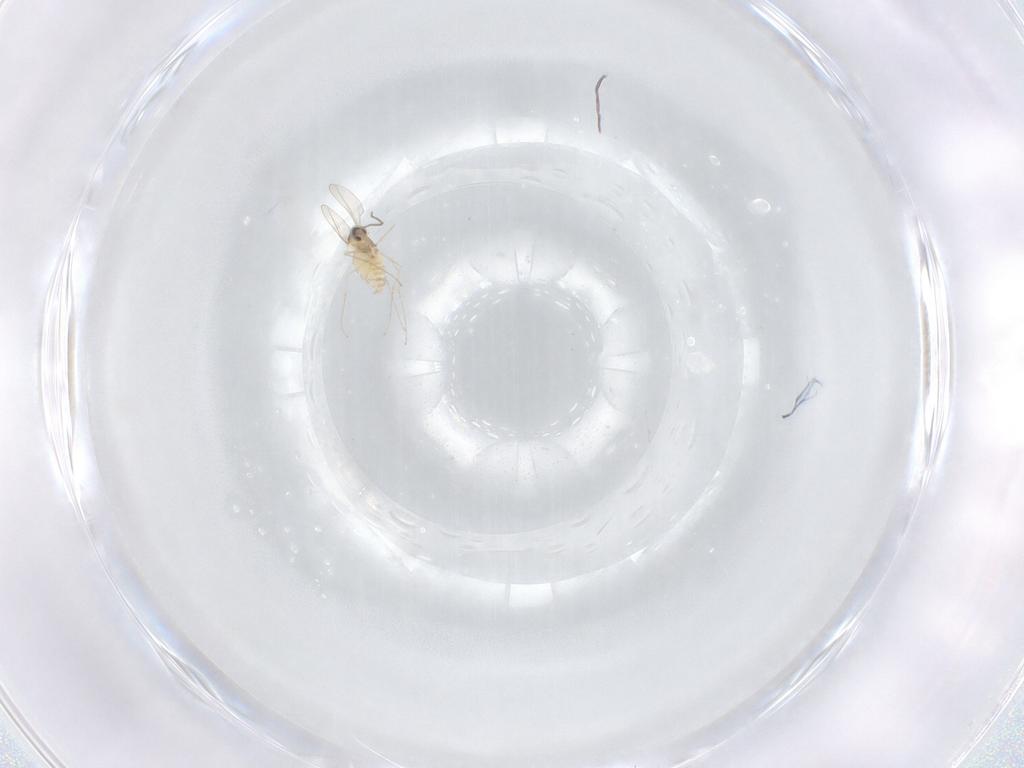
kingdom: Animalia
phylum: Arthropoda
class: Insecta
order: Diptera
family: Cecidomyiidae
